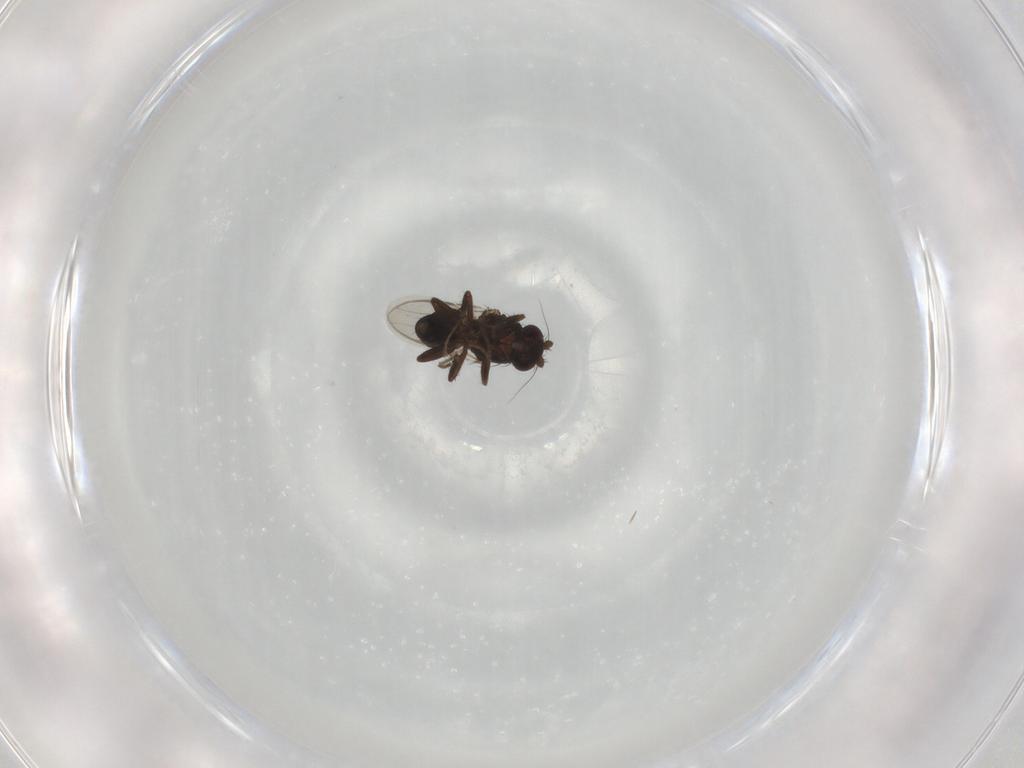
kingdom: Animalia
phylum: Arthropoda
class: Insecta
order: Diptera
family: Sphaeroceridae
